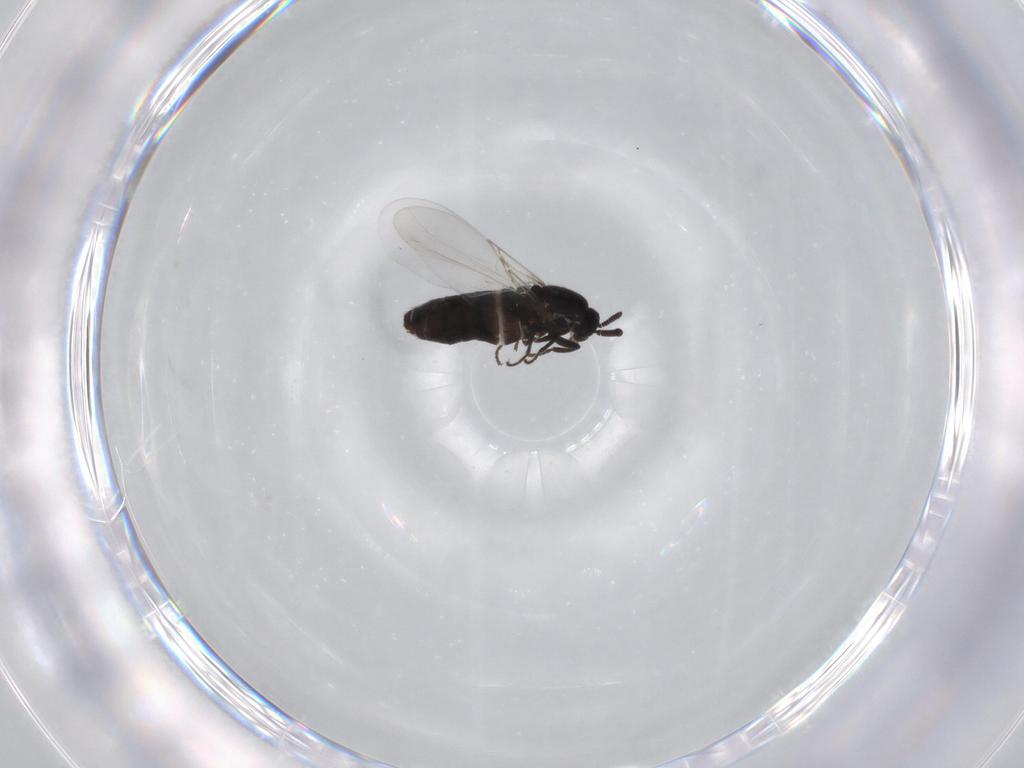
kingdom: Animalia
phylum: Arthropoda
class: Insecta
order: Diptera
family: Scatopsidae
